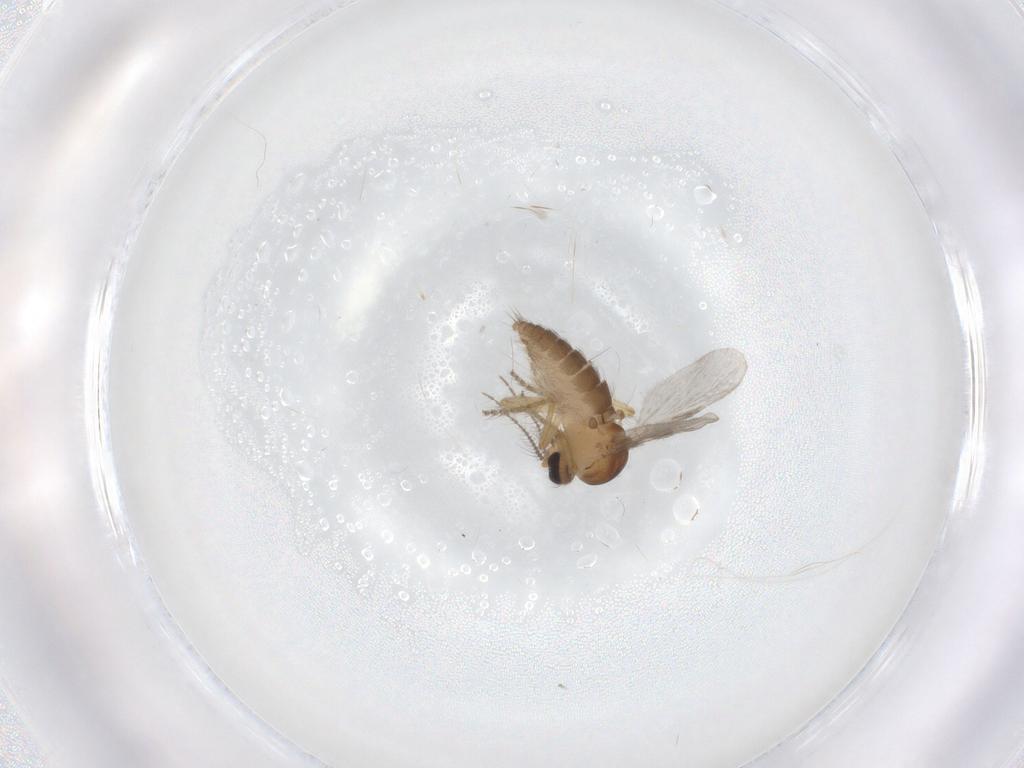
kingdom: Animalia
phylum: Arthropoda
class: Insecta
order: Diptera
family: Ceratopogonidae
